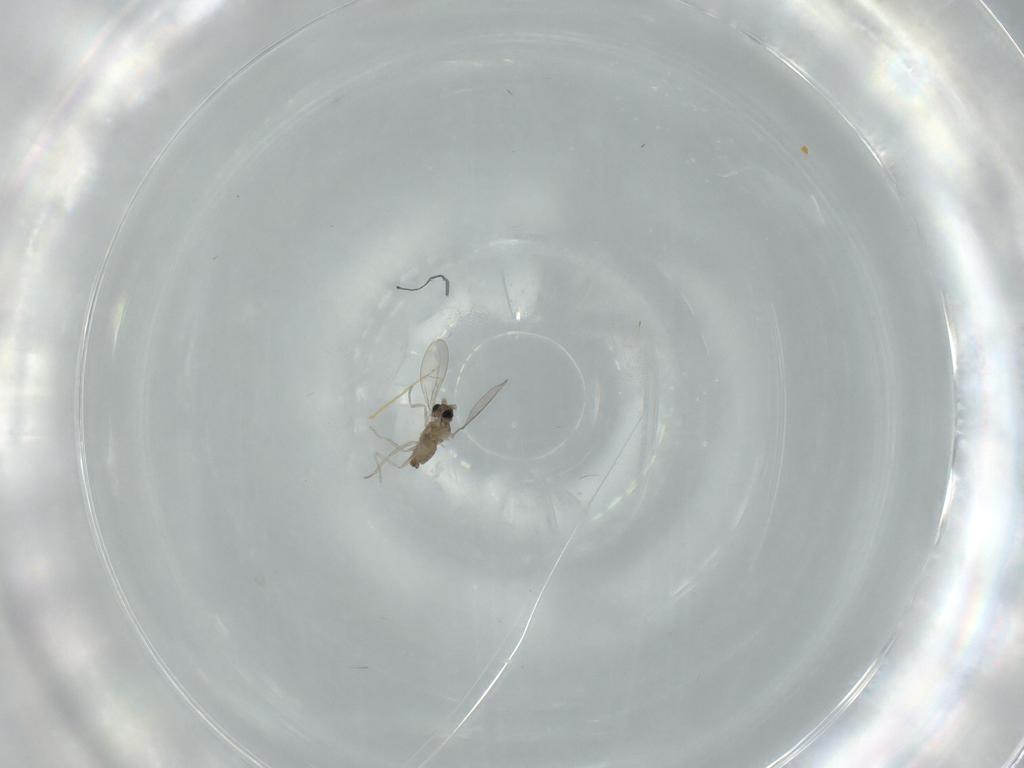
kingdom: Animalia
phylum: Arthropoda
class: Insecta
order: Diptera
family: Cecidomyiidae
